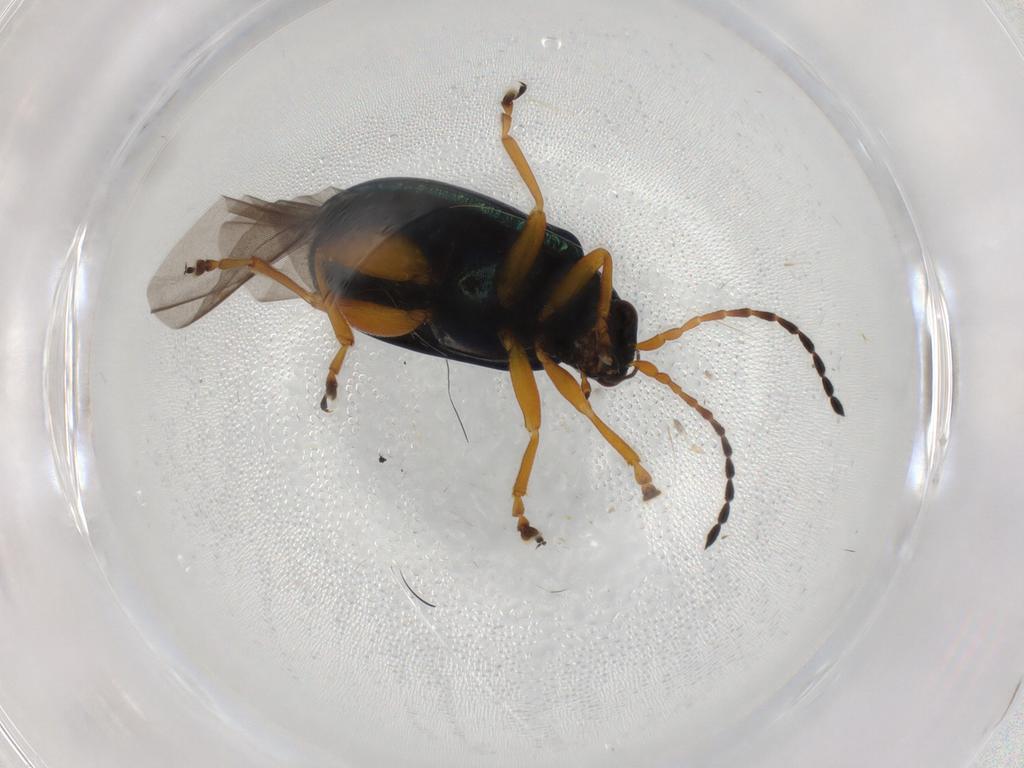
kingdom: Animalia
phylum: Arthropoda
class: Insecta
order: Coleoptera
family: Chrysomelidae
